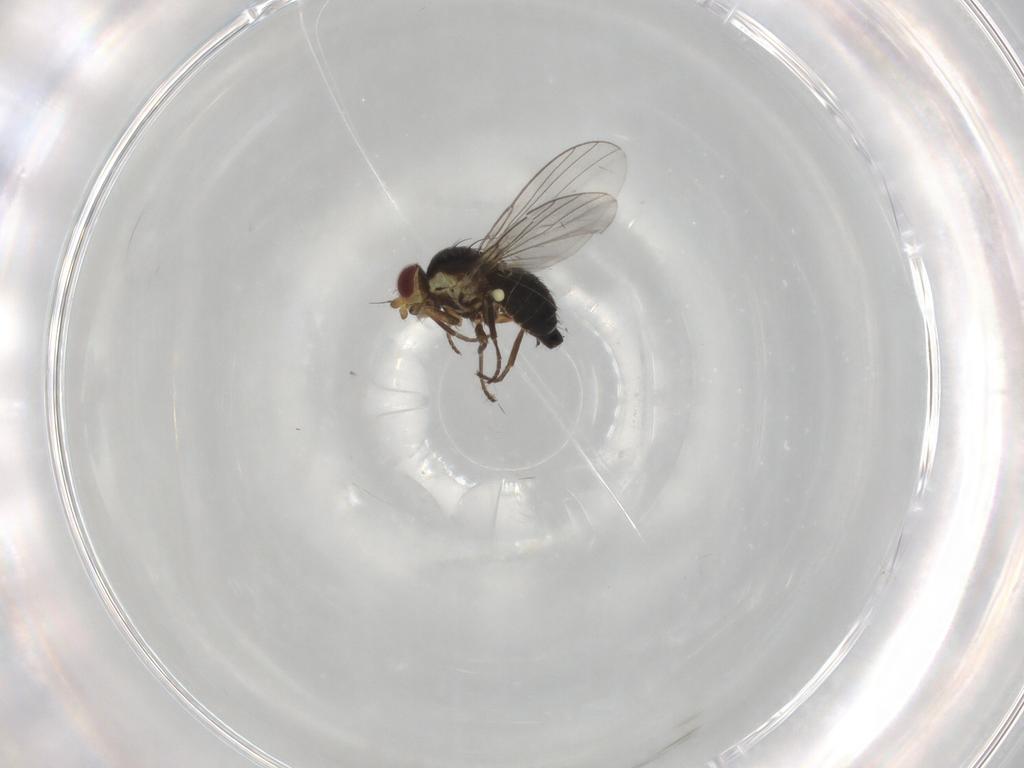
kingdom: Animalia
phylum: Arthropoda
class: Insecta
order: Diptera
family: Agromyzidae
